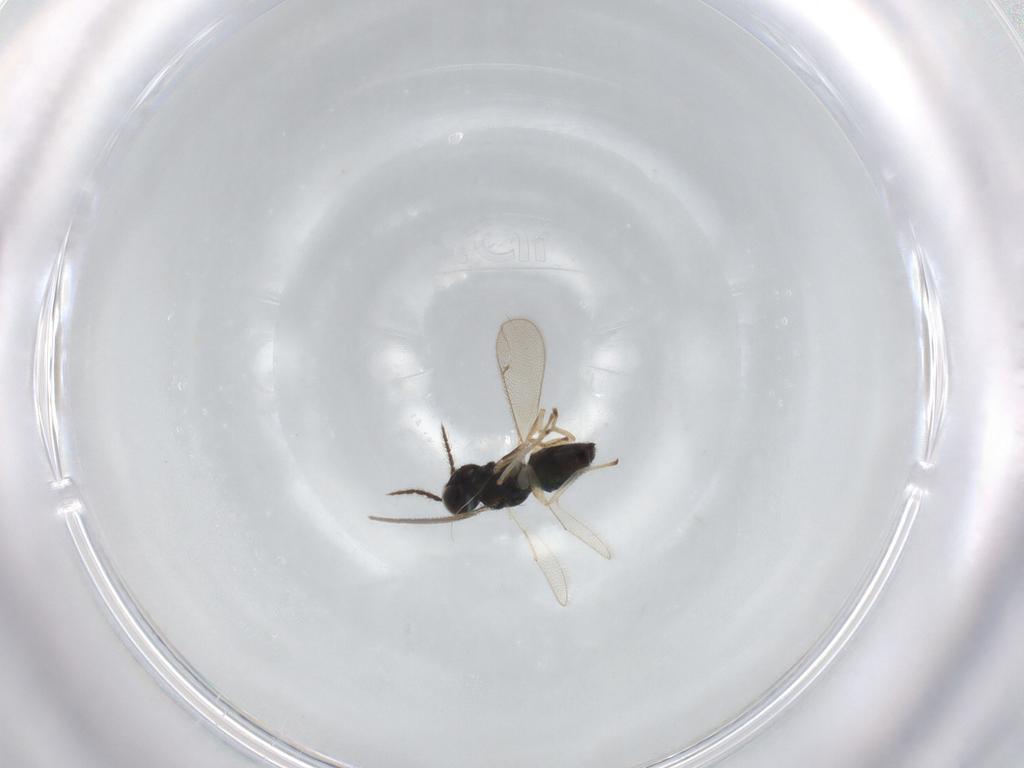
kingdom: Animalia
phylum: Arthropoda
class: Insecta
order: Hymenoptera
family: Eulophidae
